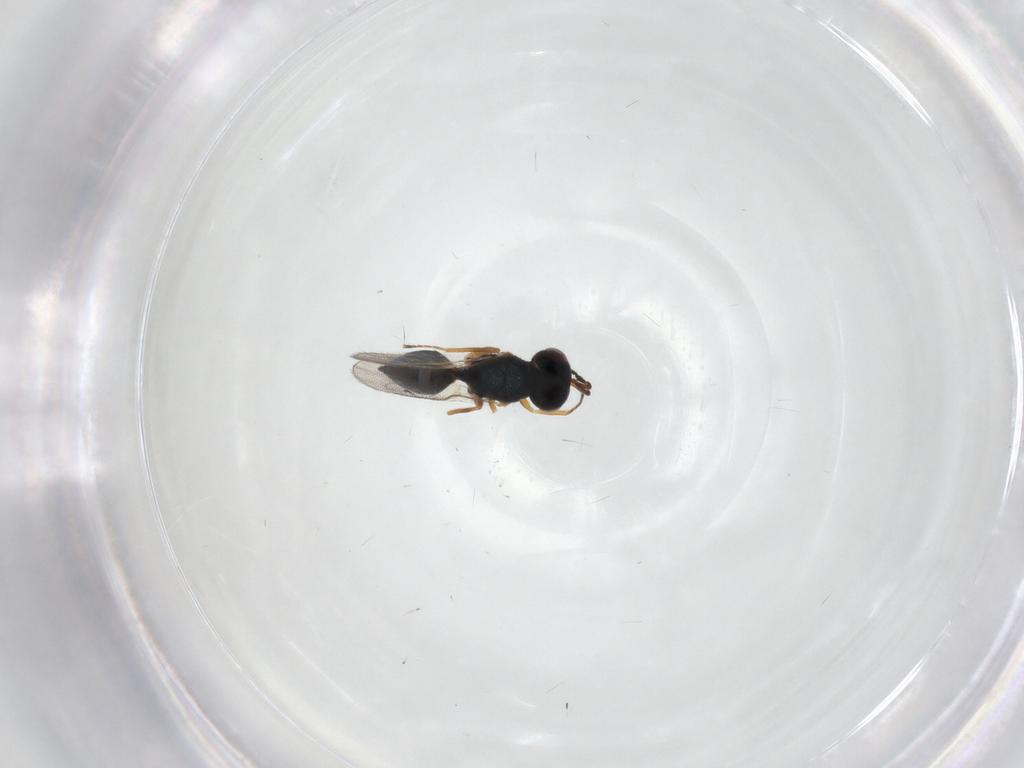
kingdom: Animalia
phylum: Arthropoda
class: Insecta
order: Hymenoptera
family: Pteromalidae
